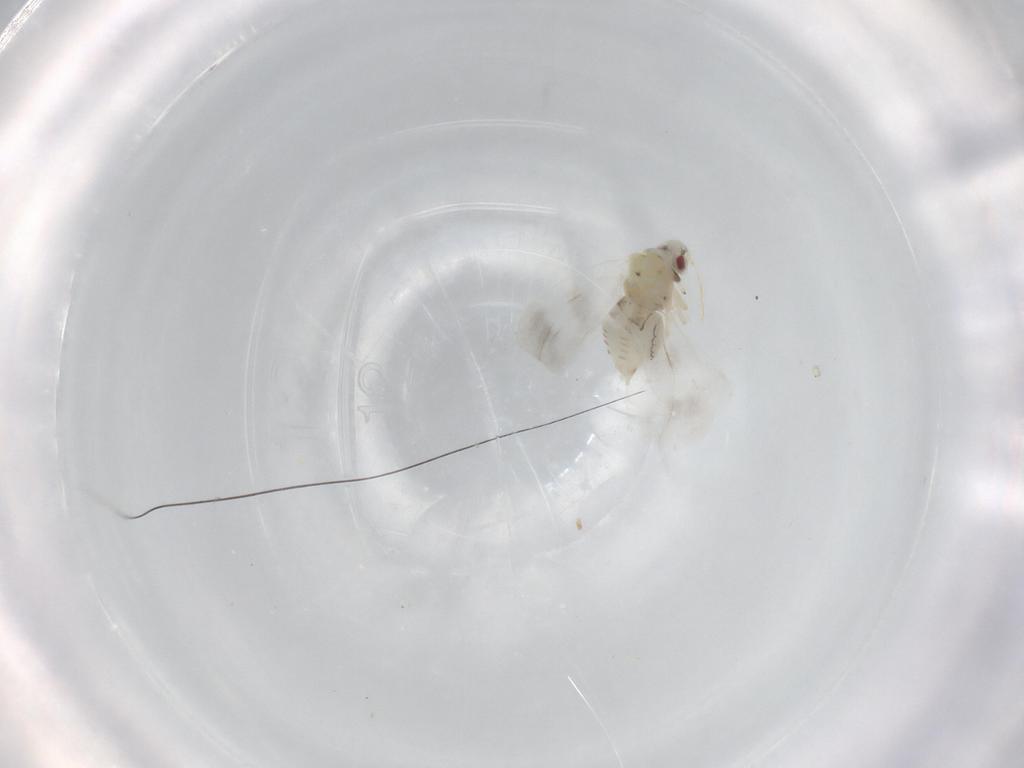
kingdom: Animalia
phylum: Arthropoda
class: Insecta
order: Hemiptera
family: Aleyrodidae
